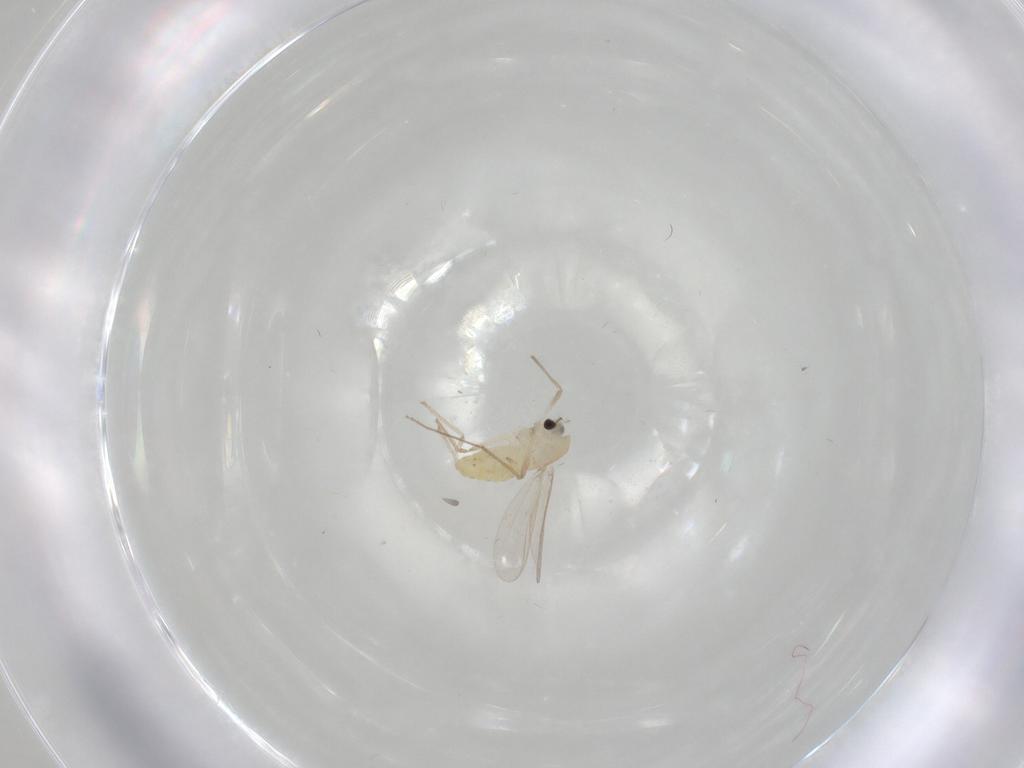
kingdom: Animalia
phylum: Arthropoda
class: Insecta
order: Diptera
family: Chironomidae
